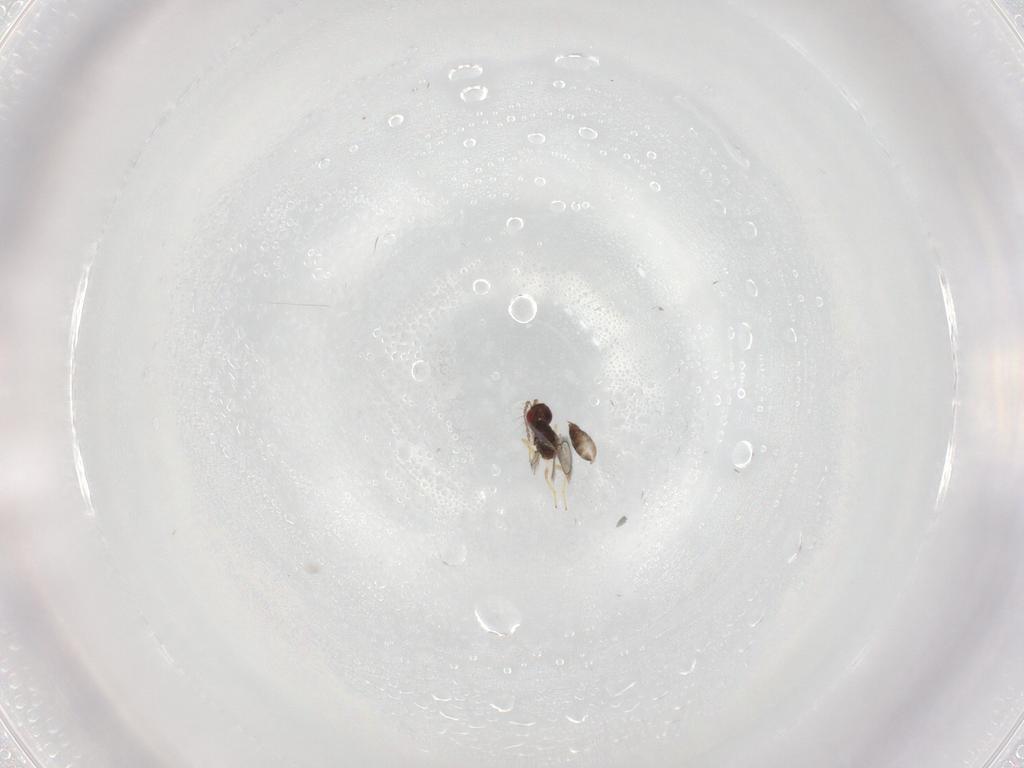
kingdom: Animalia
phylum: Arthropoda
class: Insecta
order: Hymenoptera
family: Eulophidae
